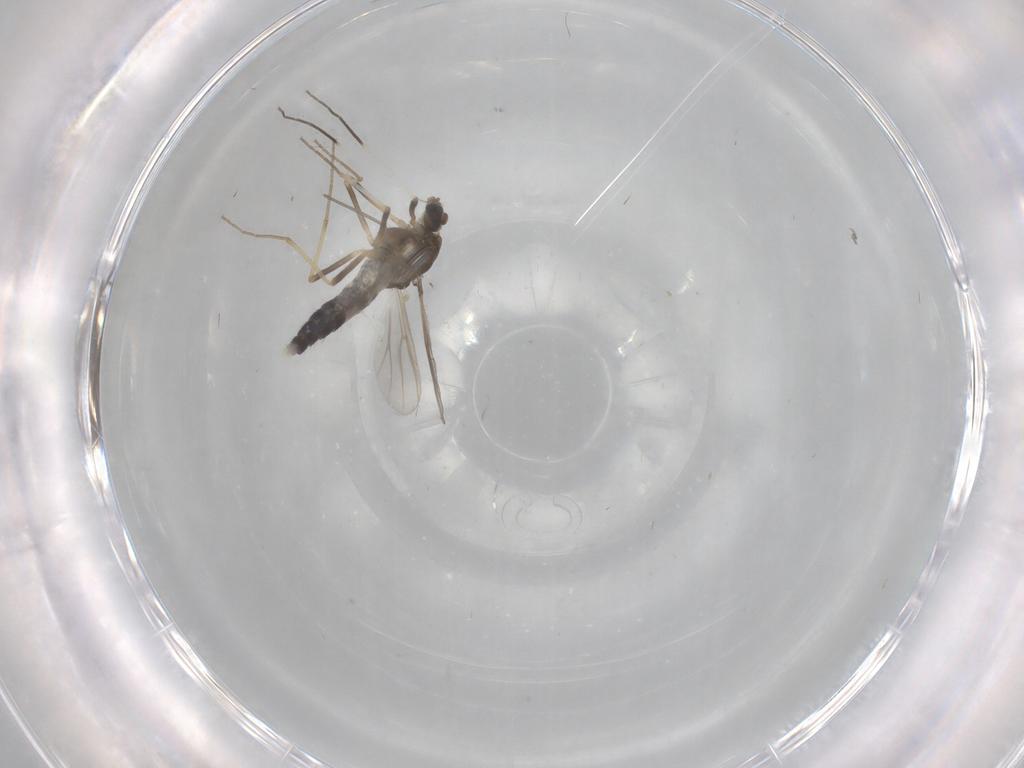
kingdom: Animalia
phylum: Arthropoda
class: Insecta
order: Diptera
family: Chironomidae
